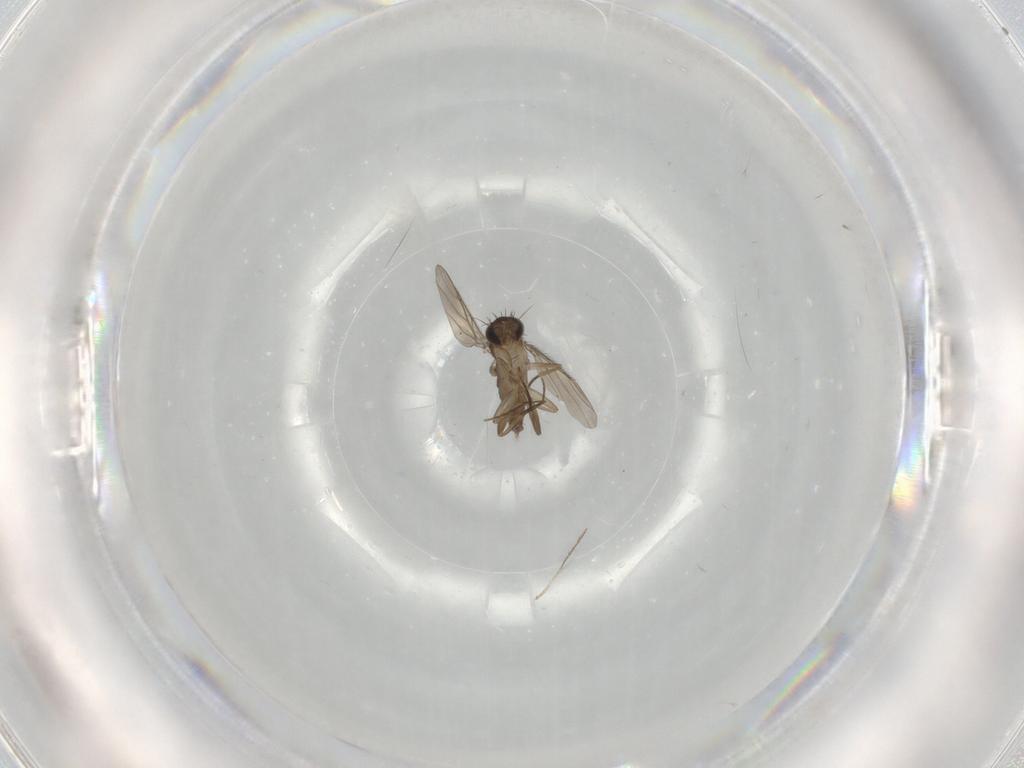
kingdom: Animalia
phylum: Arthropoda
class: Insecta
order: Diptera
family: Phoridae
